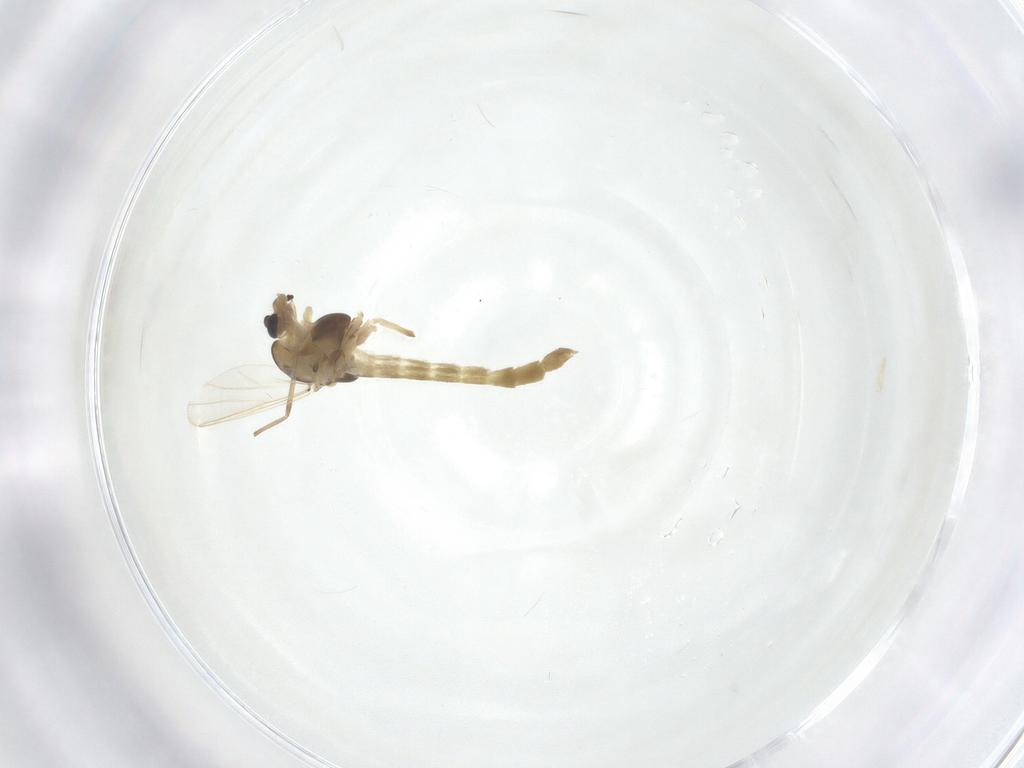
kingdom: Animalia
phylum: Arthropoda
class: Insecta
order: Diptera
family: Chironomidae
